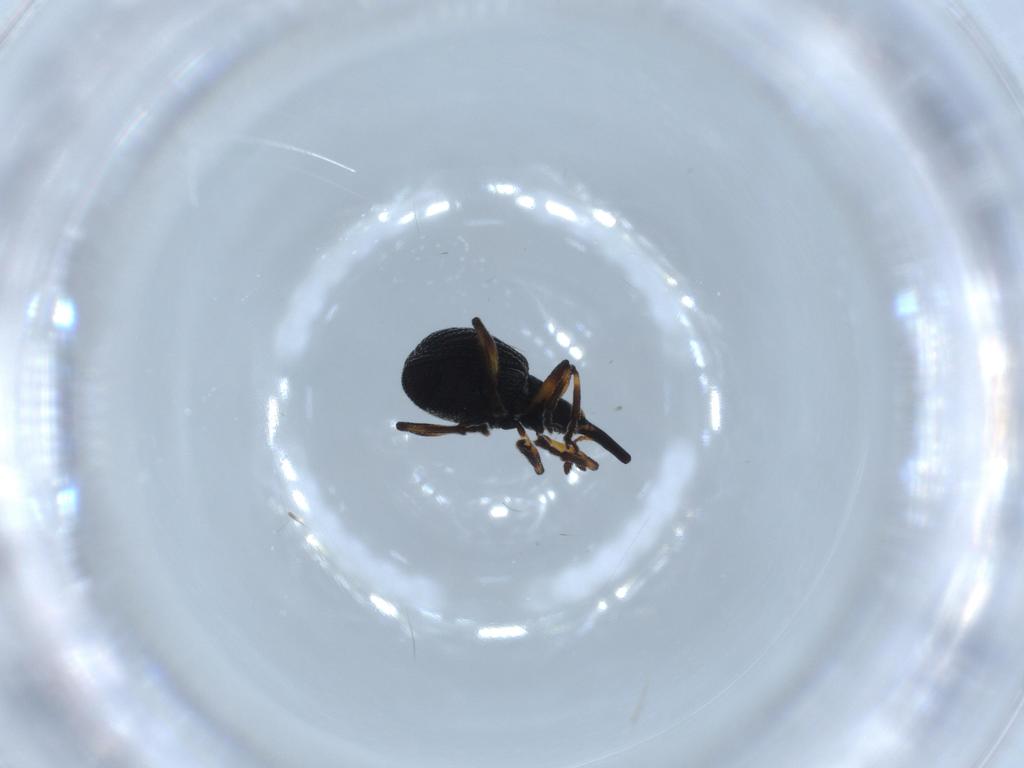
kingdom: Animalia
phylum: Arthropoda
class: Insecta
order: Coleoptera
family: Brentidae
